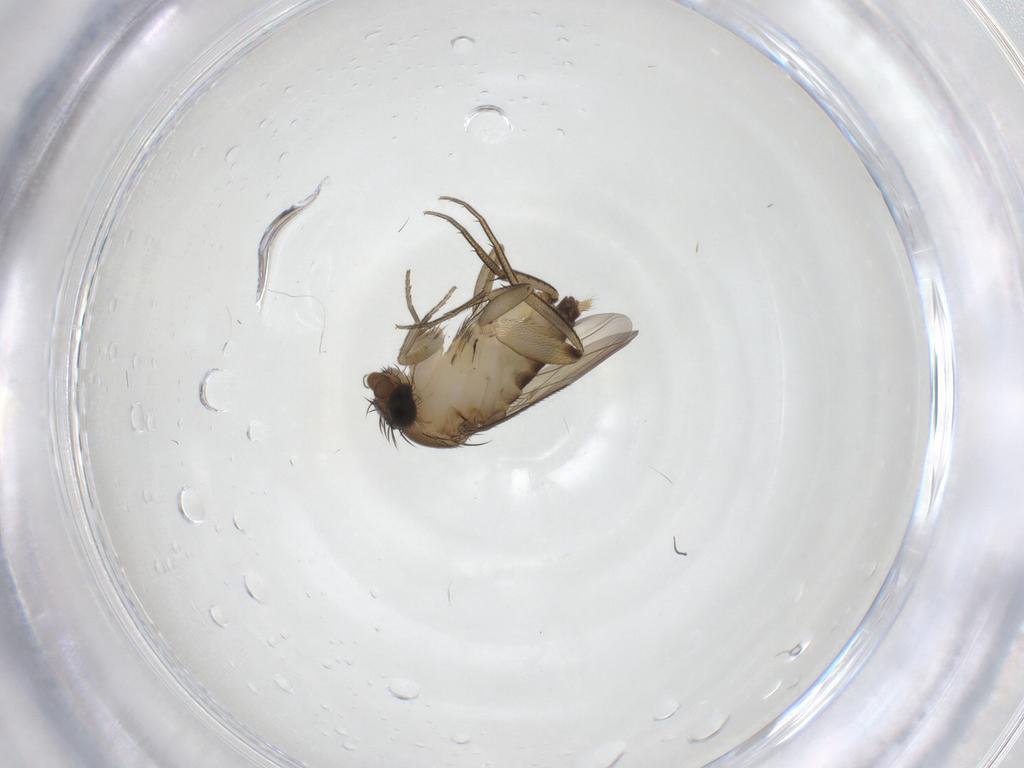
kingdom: Animalia
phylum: Arthropoda
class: Insecta
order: Diptera
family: Phoridae
